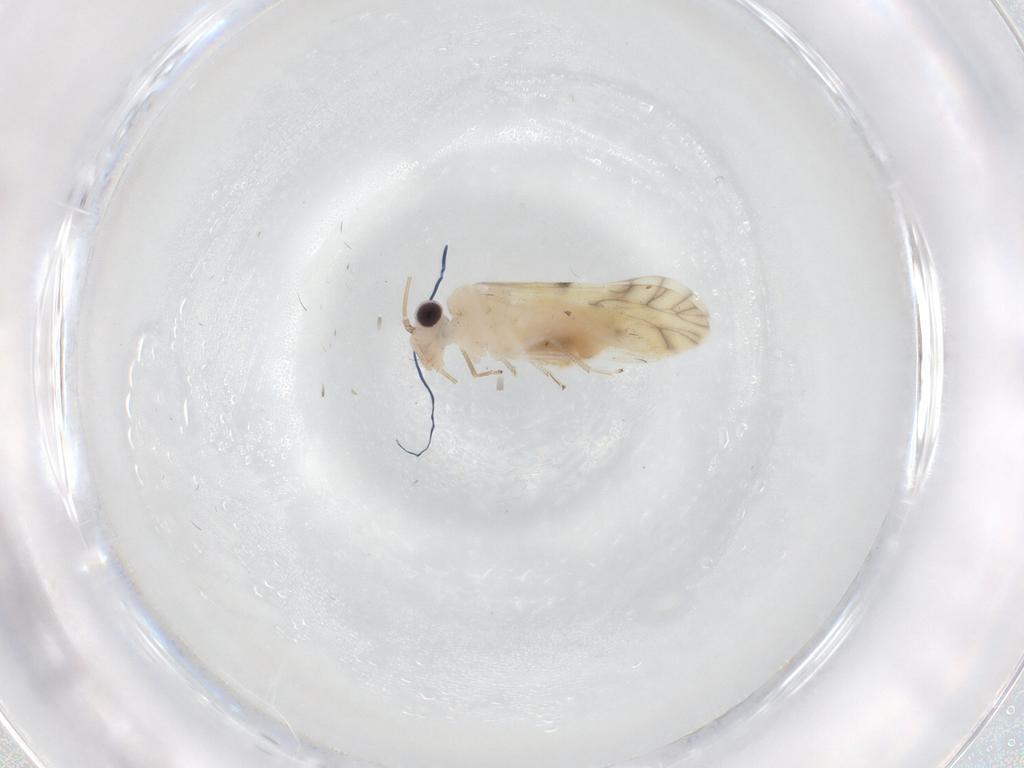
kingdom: Animalia
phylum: Arthropoda
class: Insecta
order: Psocodea
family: Caeciliusidae
